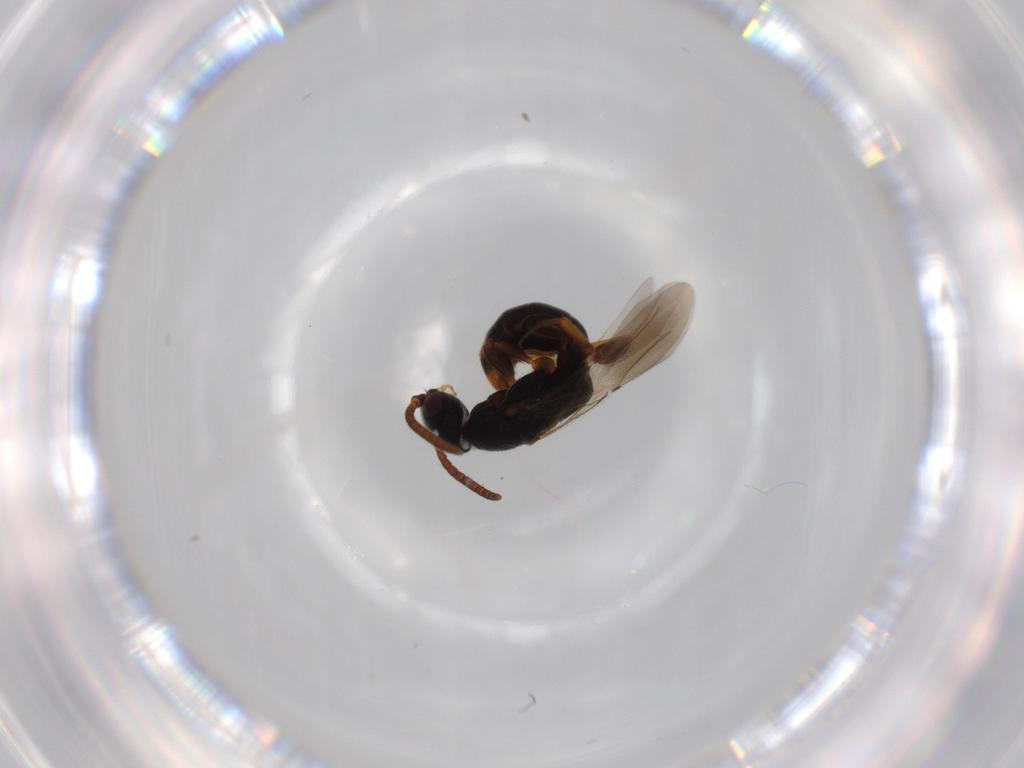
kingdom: Animalia
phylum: Arthropoda
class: Insecta
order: Hymenoptera
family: Bethylidae
